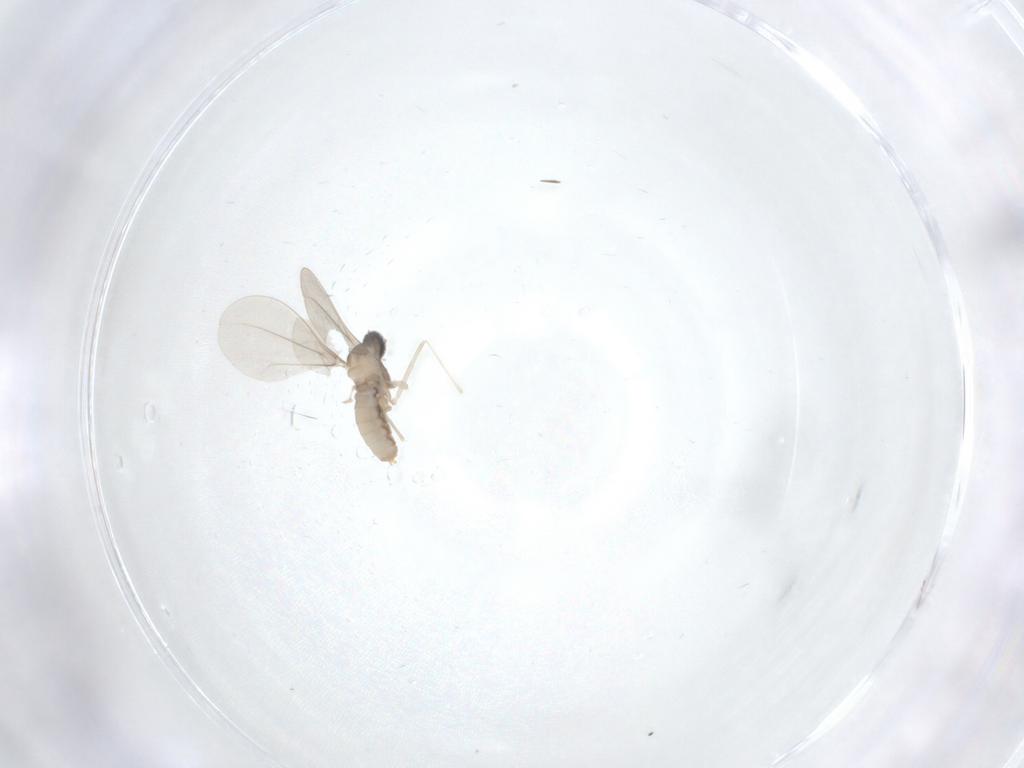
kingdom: Animalia
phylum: Arthropoda
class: Insecta
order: Diptera
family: Cecidomyiidae
